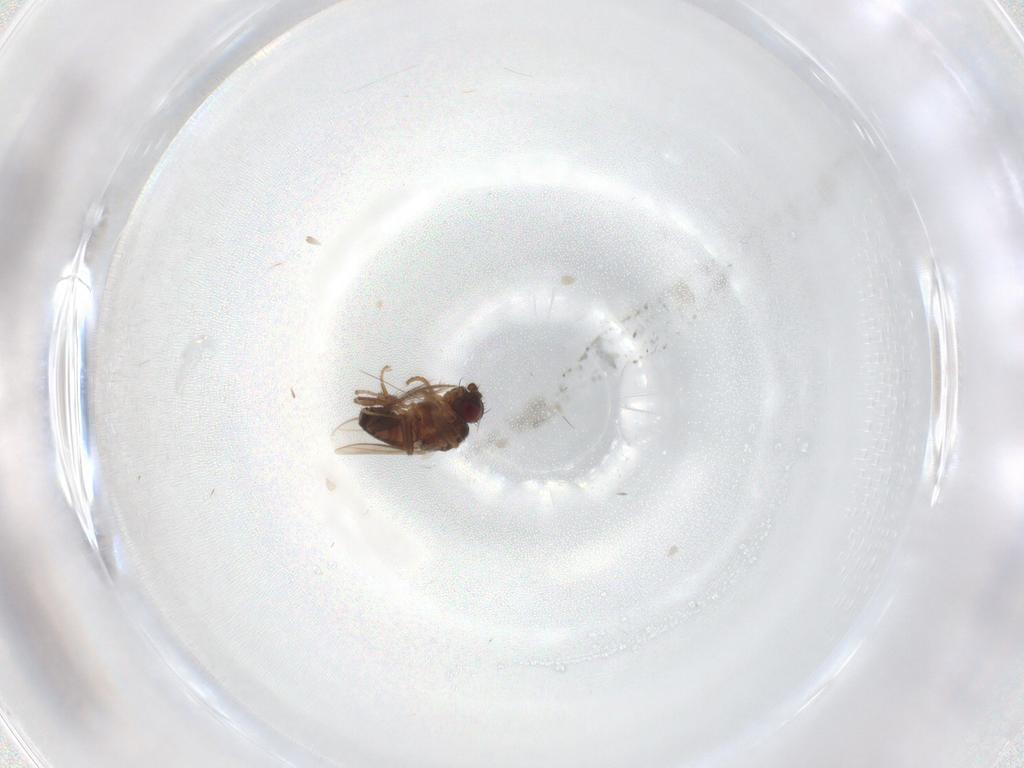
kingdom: Animalia
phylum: Arthropoda
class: Insecta
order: Diptera
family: Sphaeroceridae
